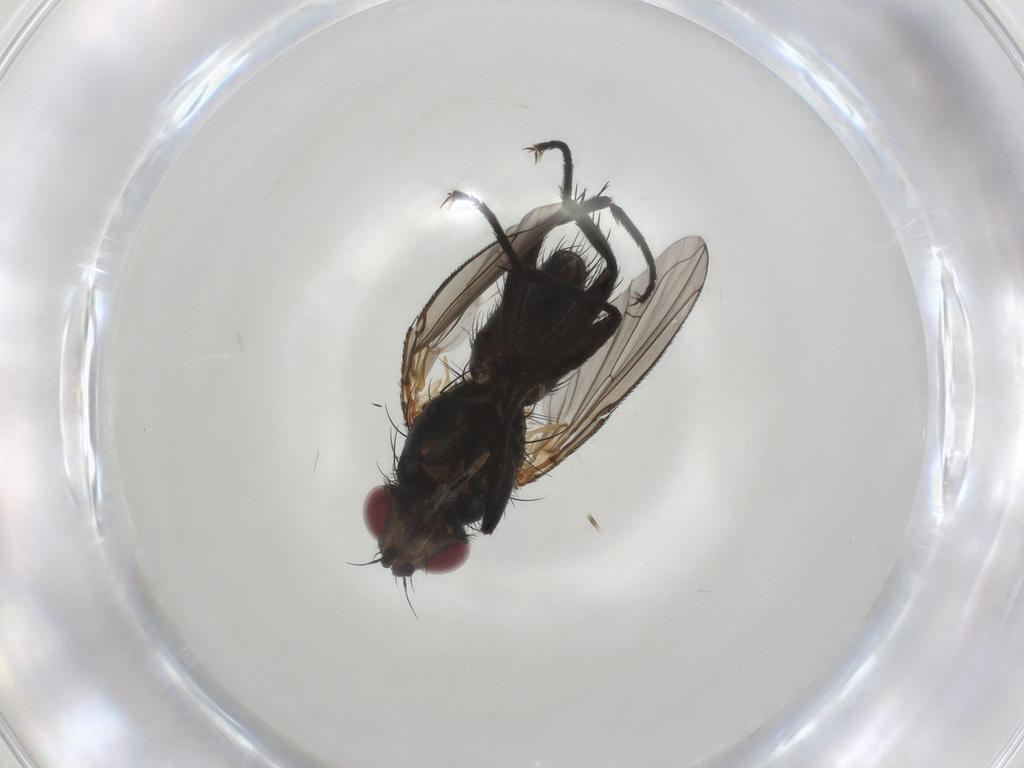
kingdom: Animalia
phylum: Arthropoda
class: Insecta
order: Diptera
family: Calliphoridae
